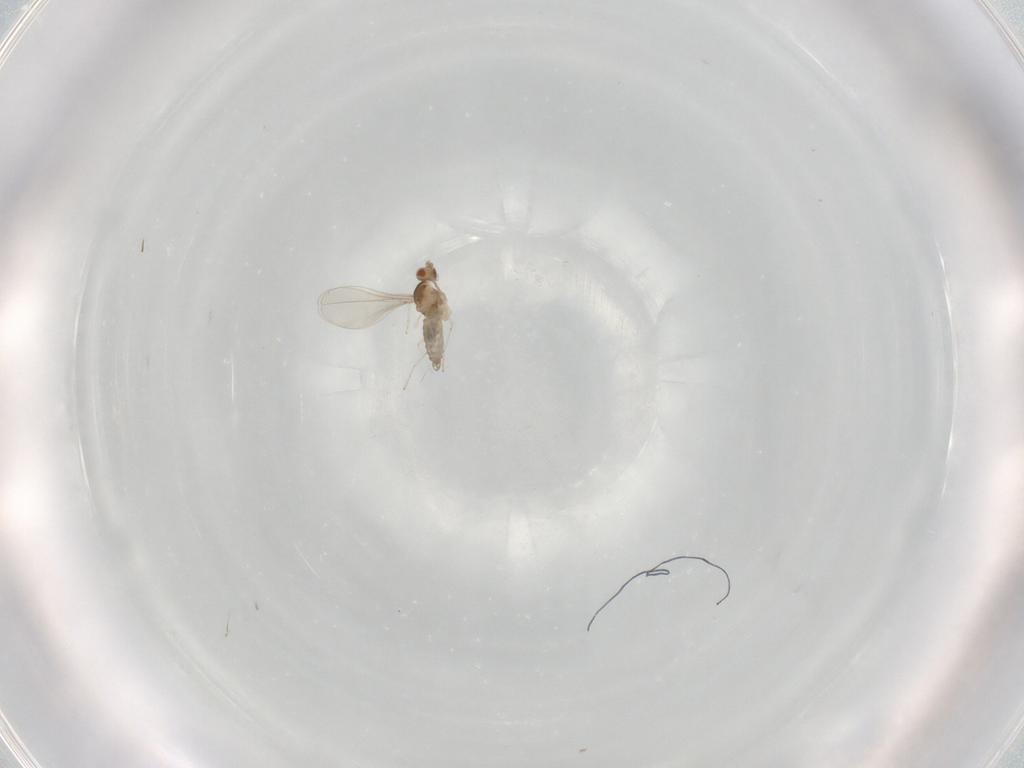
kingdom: Animalia
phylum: Arthropoda
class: Insecta
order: Diptera
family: Cecidomyiidae
